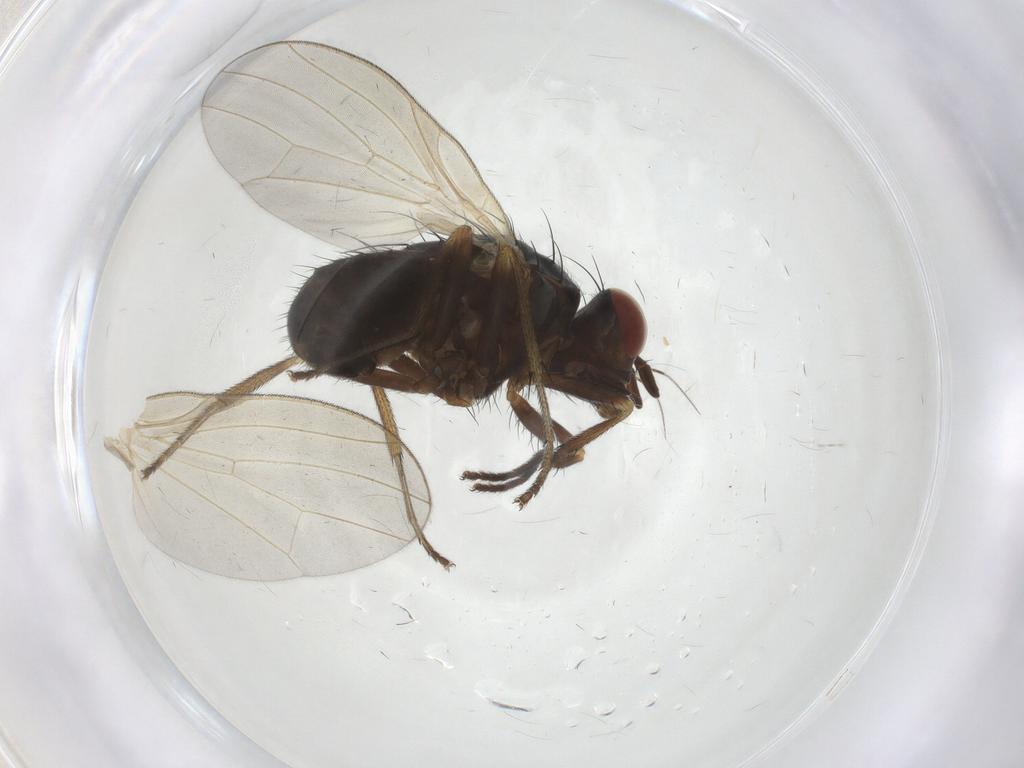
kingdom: Animalia
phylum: Arthropoda
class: Insecta
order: Diptera
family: Lauxaniidae
